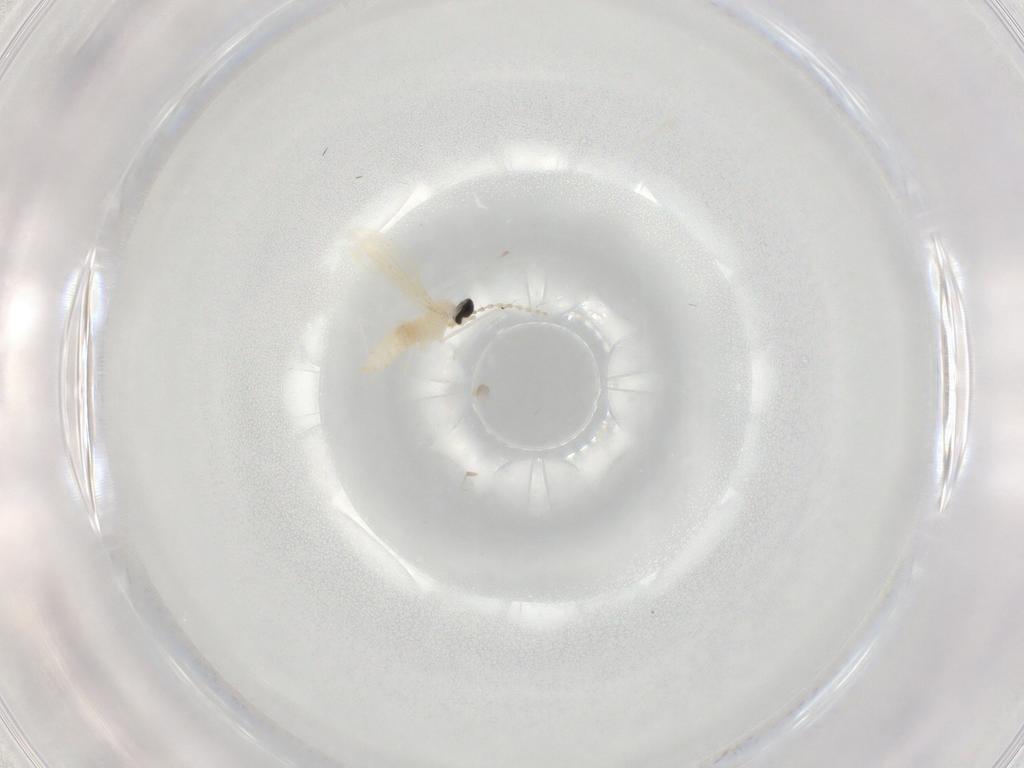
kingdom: Animalia
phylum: Arthropoda
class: Insecta
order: Diptera
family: Cecidomyiidae
